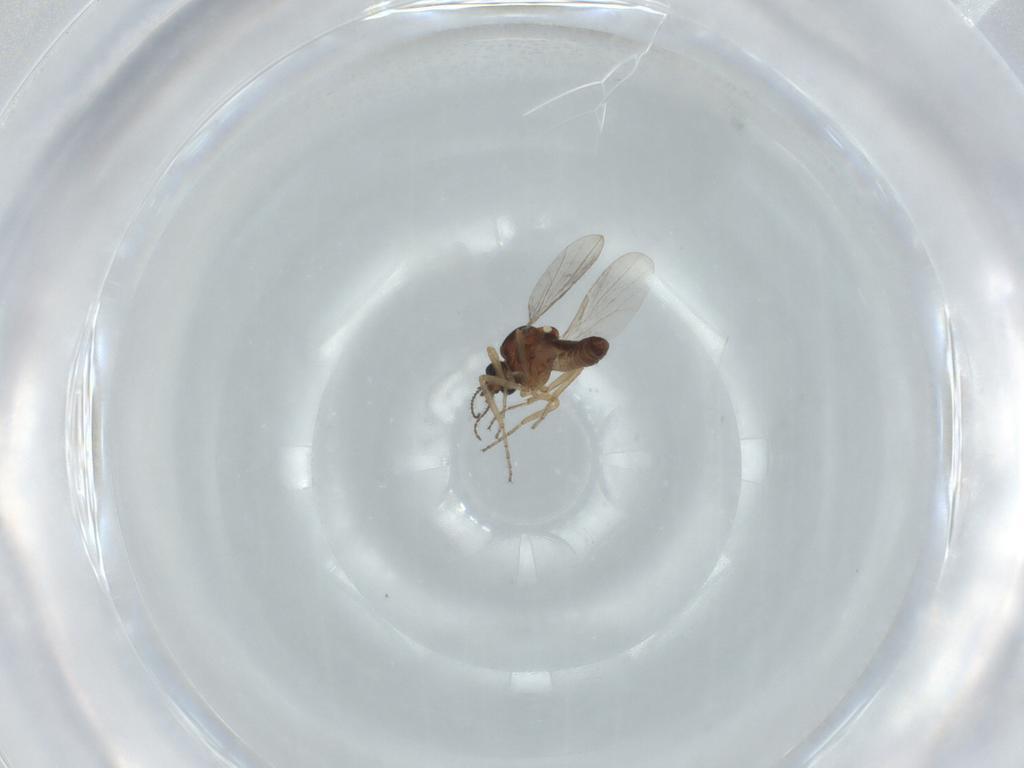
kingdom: Animalia
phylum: Arthropoda
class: Insecta
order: Diptera
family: Ceratopogonidae
